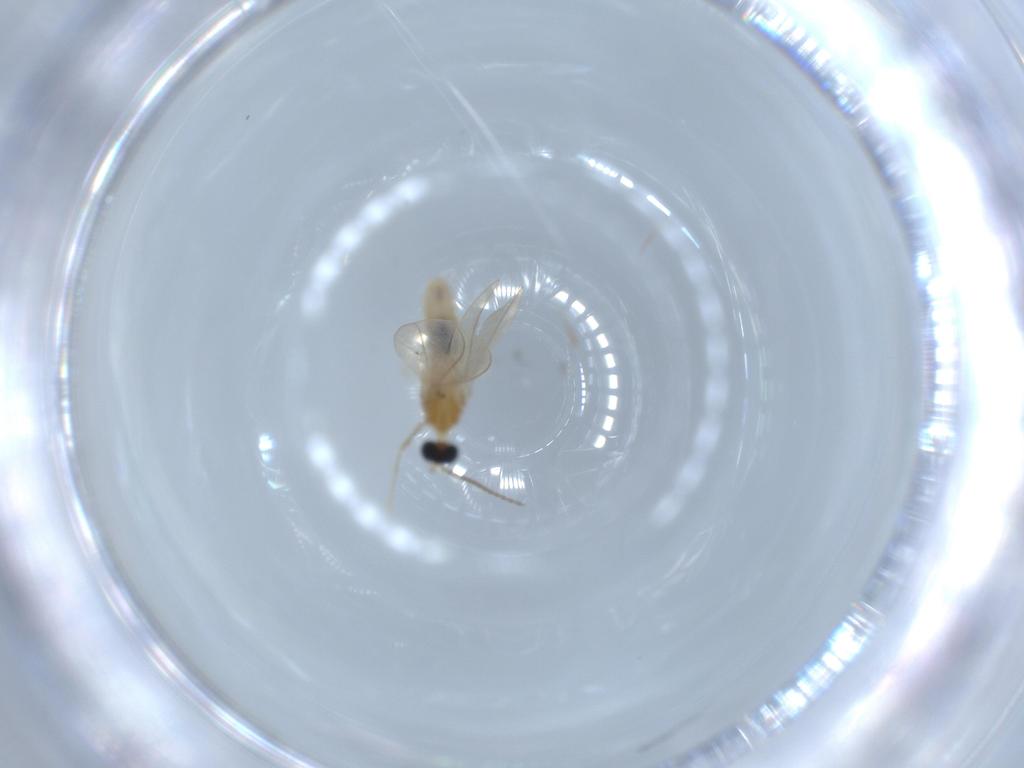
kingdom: Animalia
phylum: Arthropoda
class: Insecta
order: Diptera
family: Cecidomyiidae
